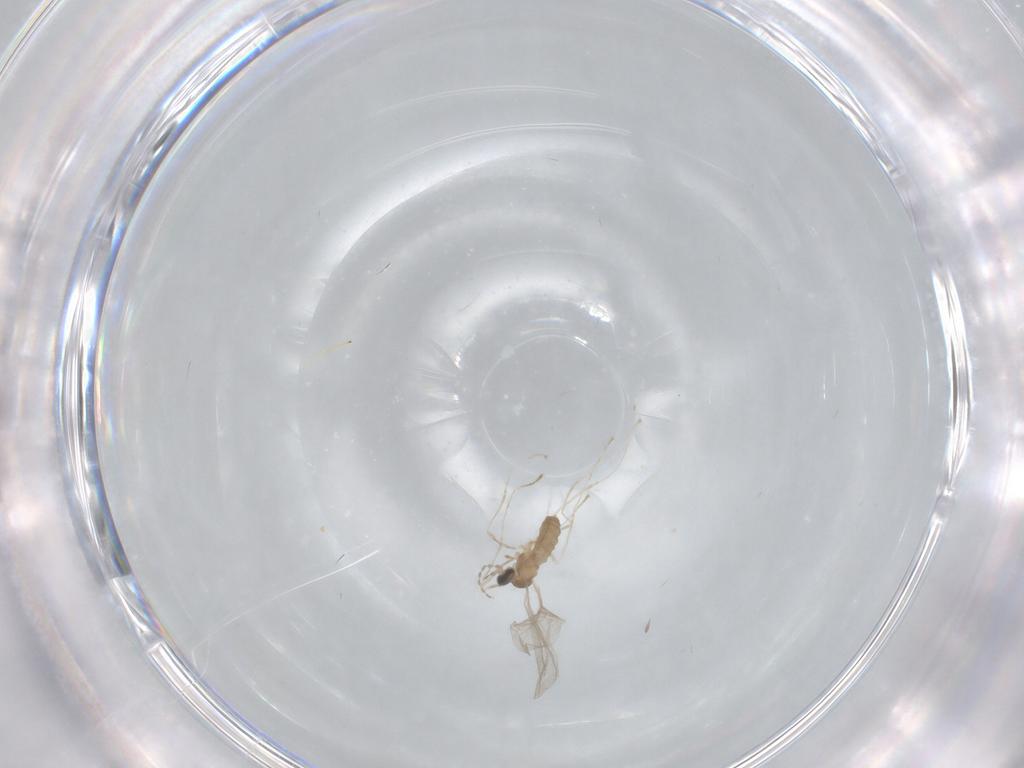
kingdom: Animalia
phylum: Arthropoda
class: Insecta
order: Diptera
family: Cecidomyiidae
